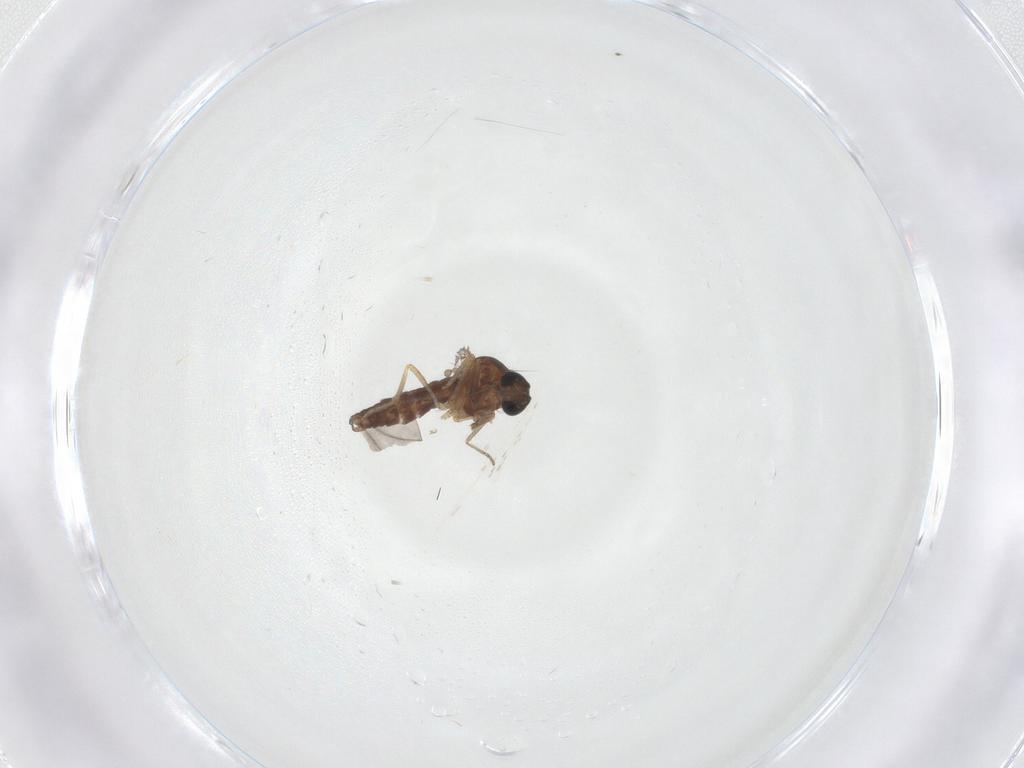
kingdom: Animalia
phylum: Arthropoda
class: Insecta
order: Diptera
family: Ceratopogonidae
